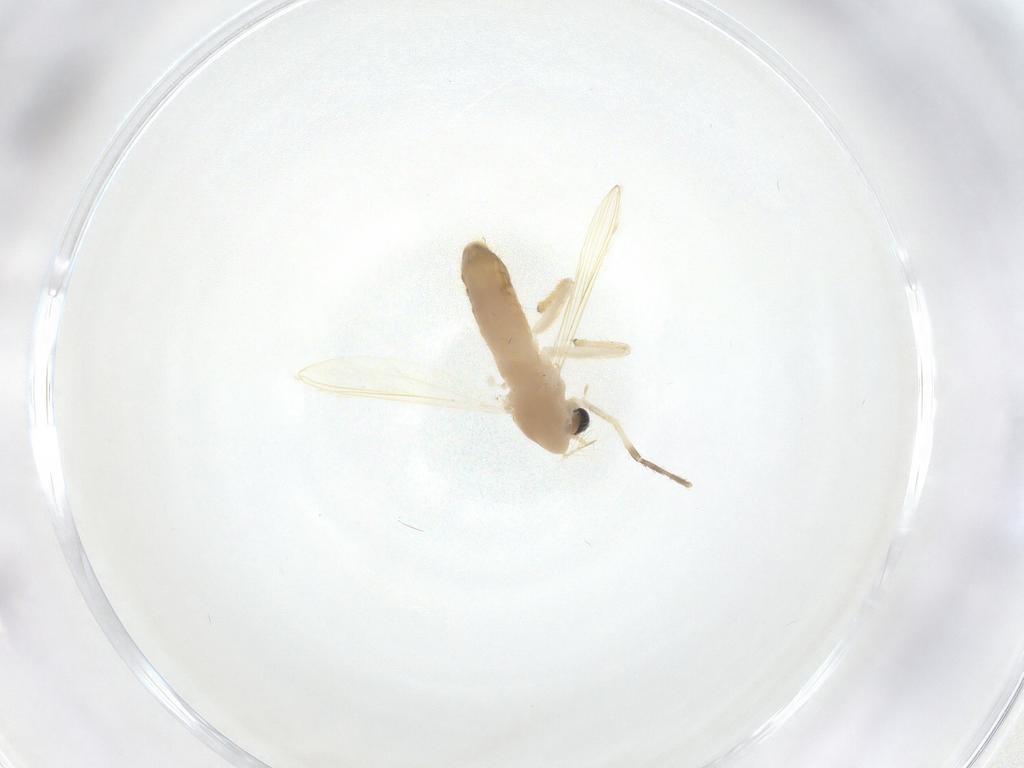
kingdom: Animalia
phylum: Arthropoda
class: Insecta
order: Diptera
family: Chironomidae
